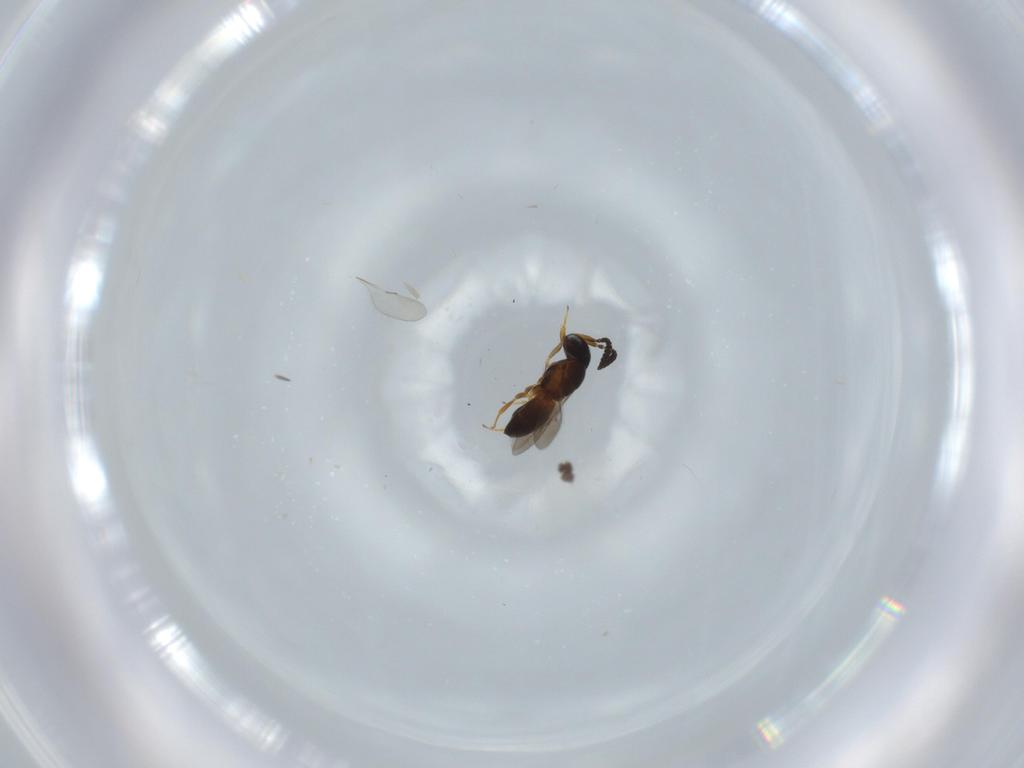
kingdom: Animalia
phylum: Arthropoda
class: Insecta
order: Hymenoptera
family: Scelionidae
